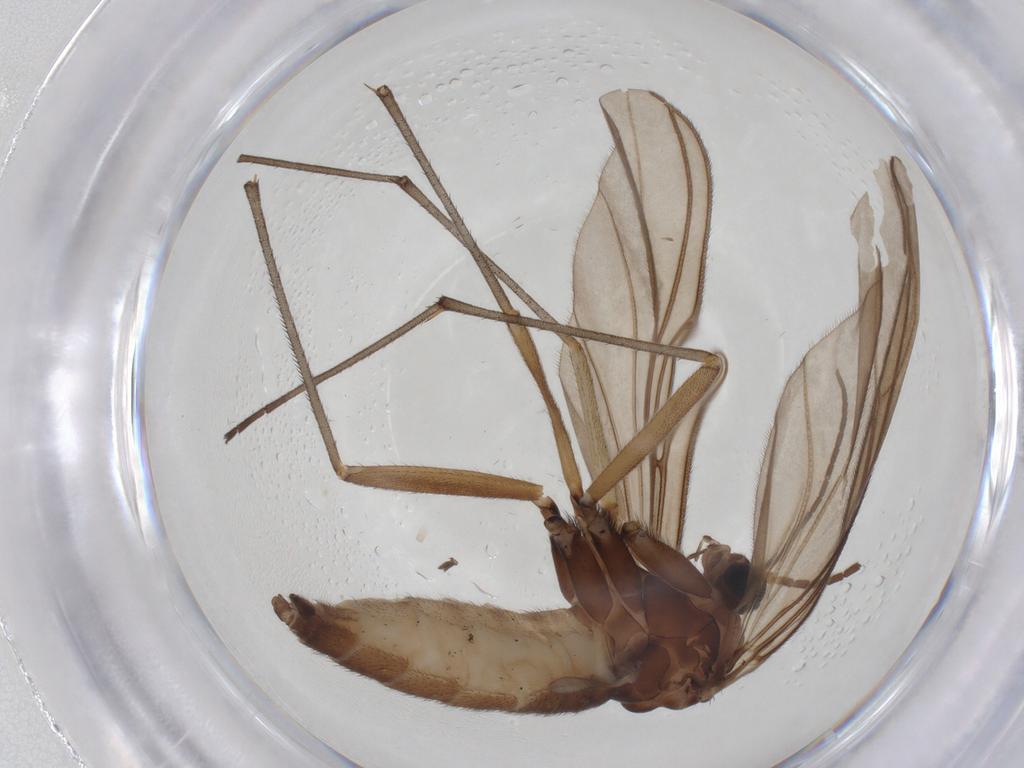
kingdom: Animalia
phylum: Arthropoda
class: Insecta
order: Diptera
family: Sciaridae
